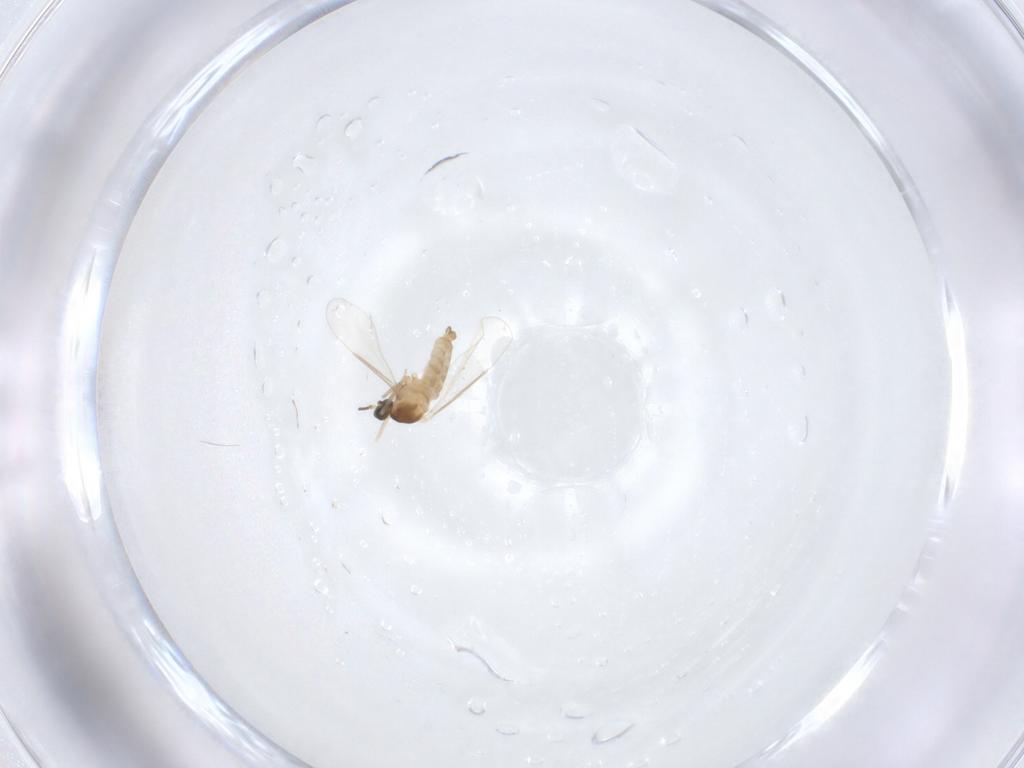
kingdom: Animalia
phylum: Arthropoda
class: Insecta
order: Diptera
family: Cecidomyiidae
